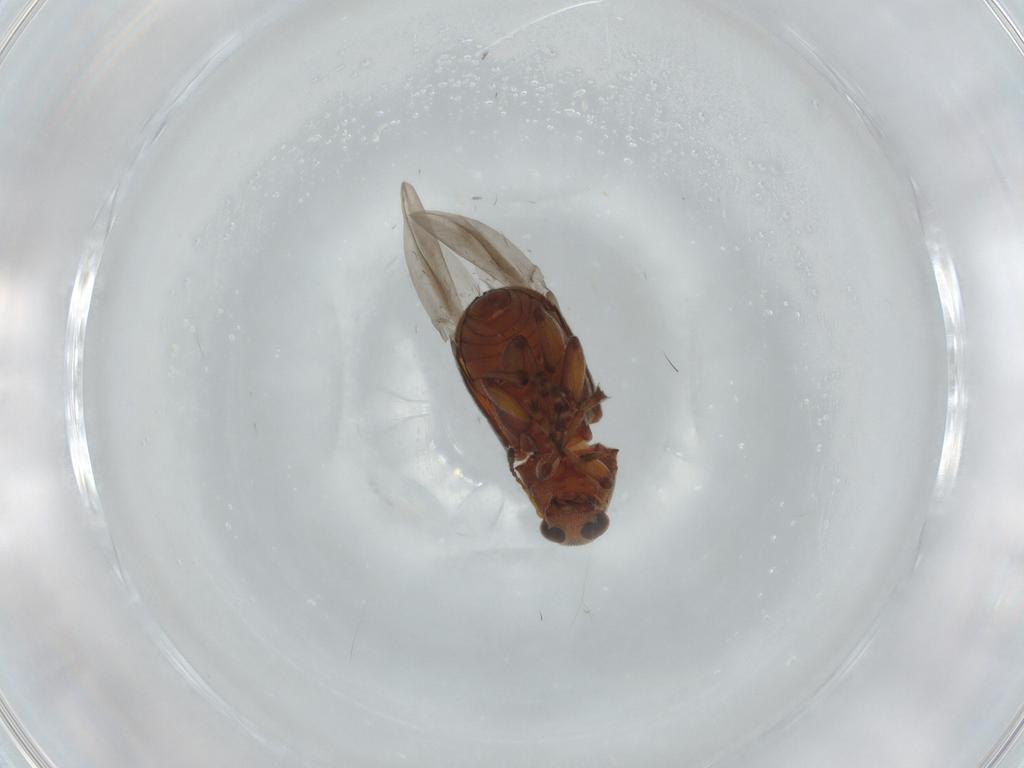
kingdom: Animalia
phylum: Arthropoda
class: Insecta
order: Coleoptera
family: Anthribidae
